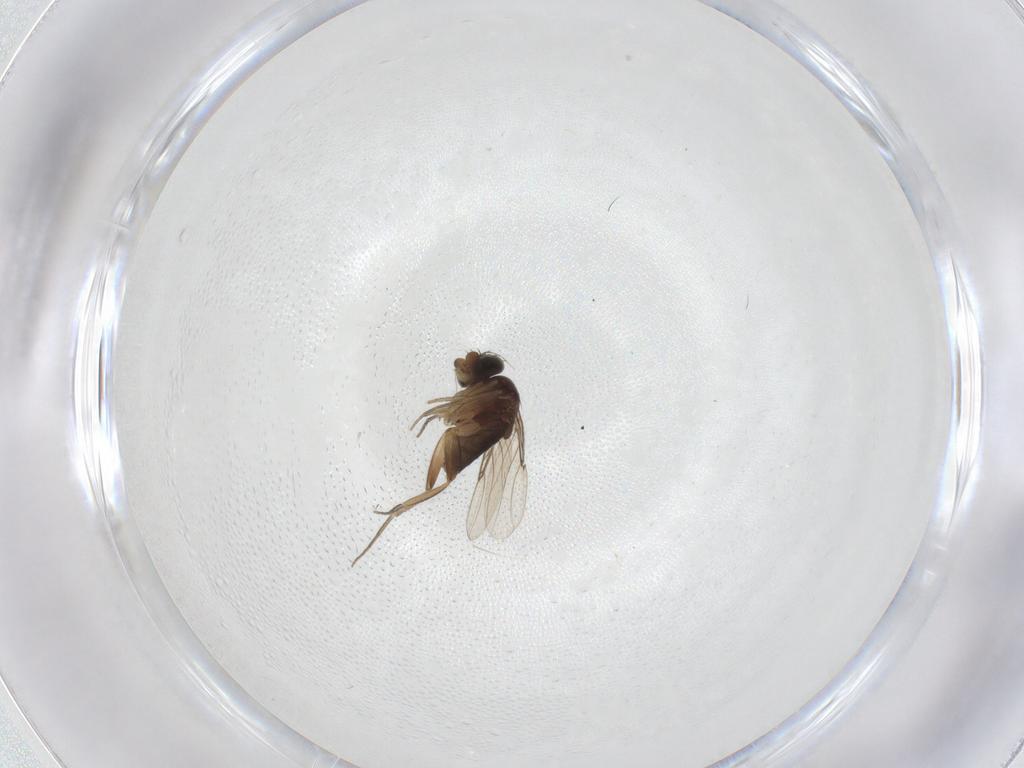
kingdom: Animalia
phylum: Arthropoda
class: Insecta
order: Diptera
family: Phoridae
